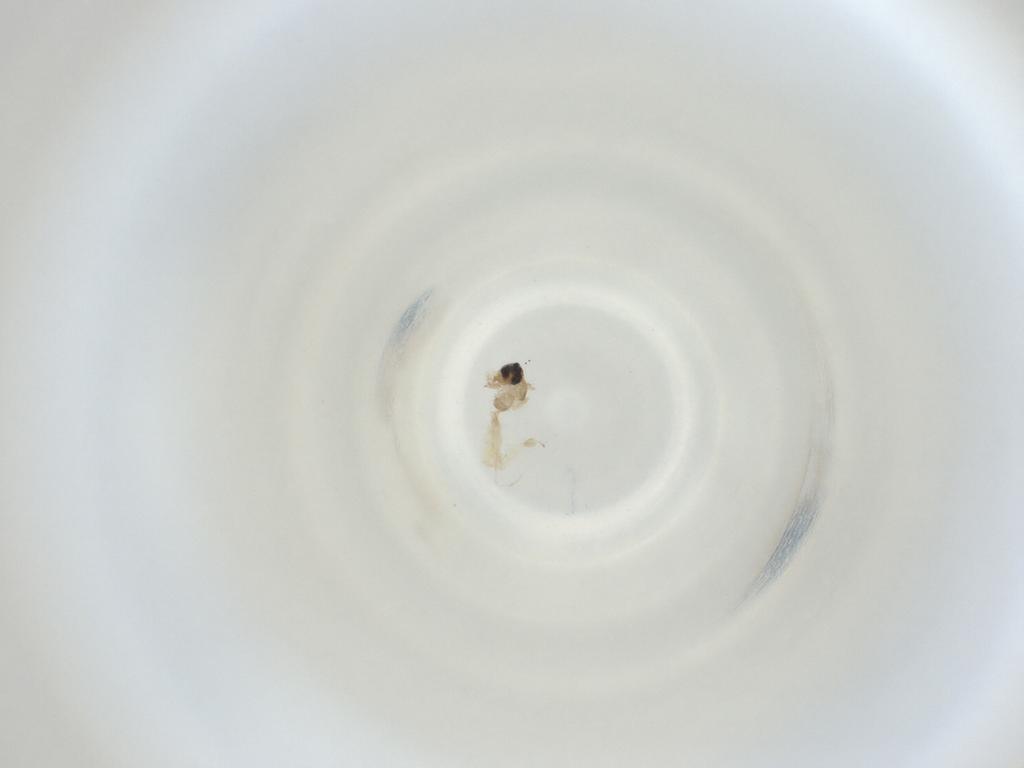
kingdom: Animalia
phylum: Arthropoda
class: Insecta
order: Diptera
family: Cecidomyiidae
